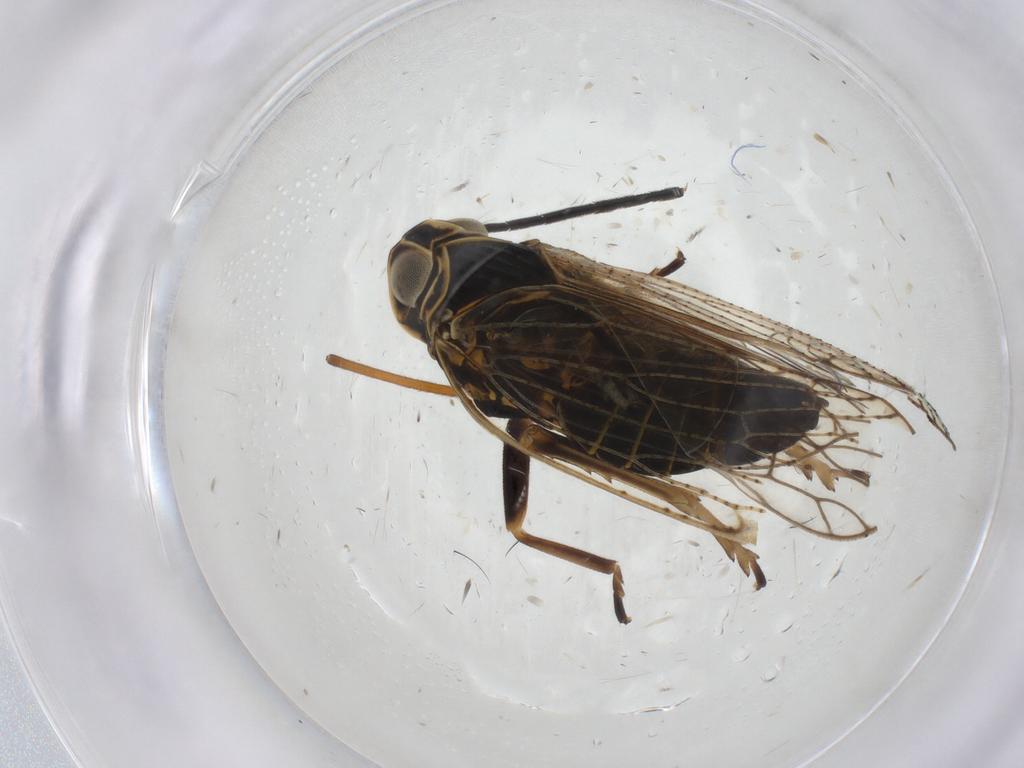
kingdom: Animalia
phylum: Arthropoda
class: Insecta
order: Hemiptera
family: Cixiidae
